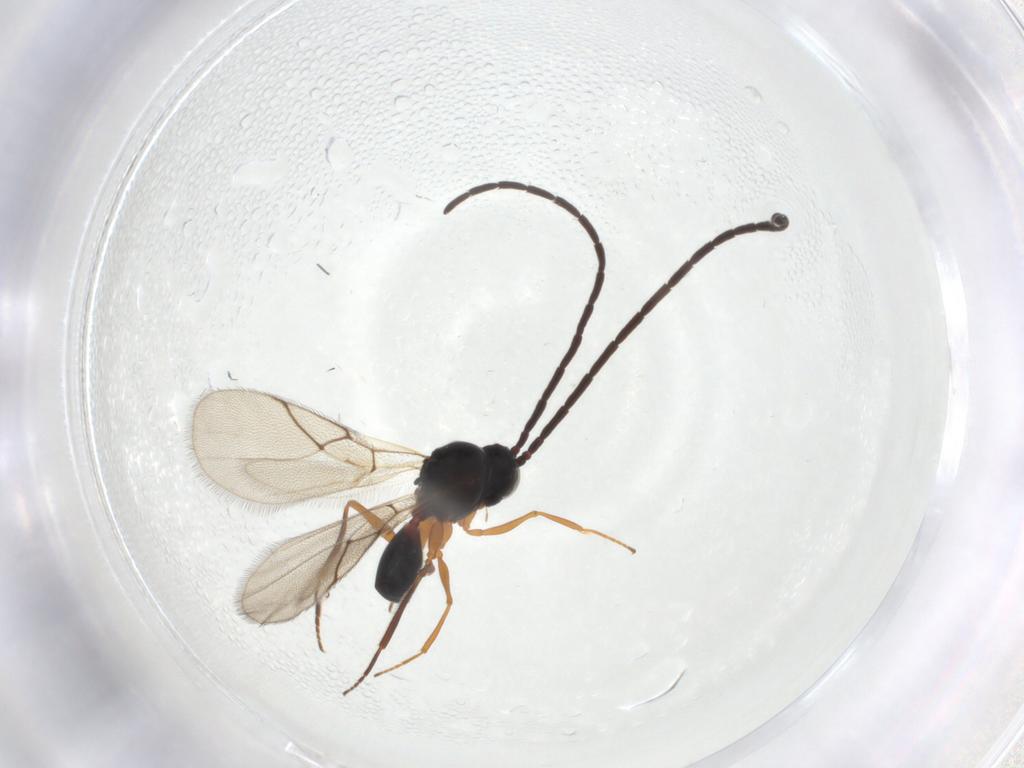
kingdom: Animalia
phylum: Arthropoda
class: Insecta
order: Hymenoptera
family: Figitidae
